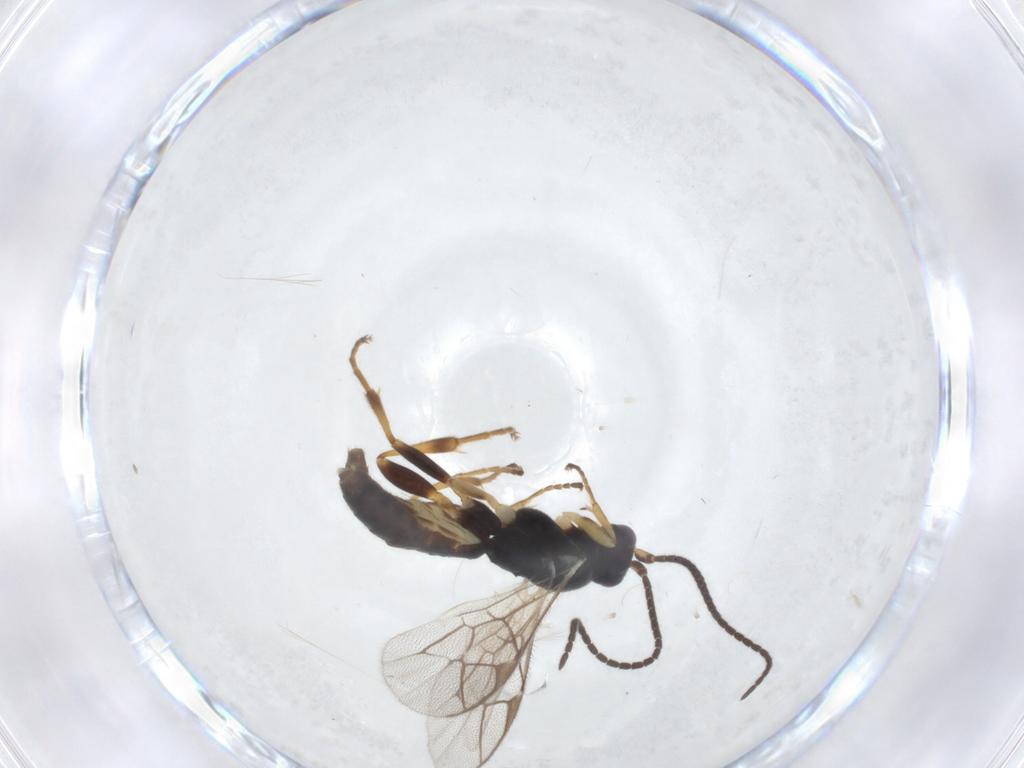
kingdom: Animalia
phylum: Arthropoda
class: Insecta
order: Hymenoptera
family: Ichneumonidae
